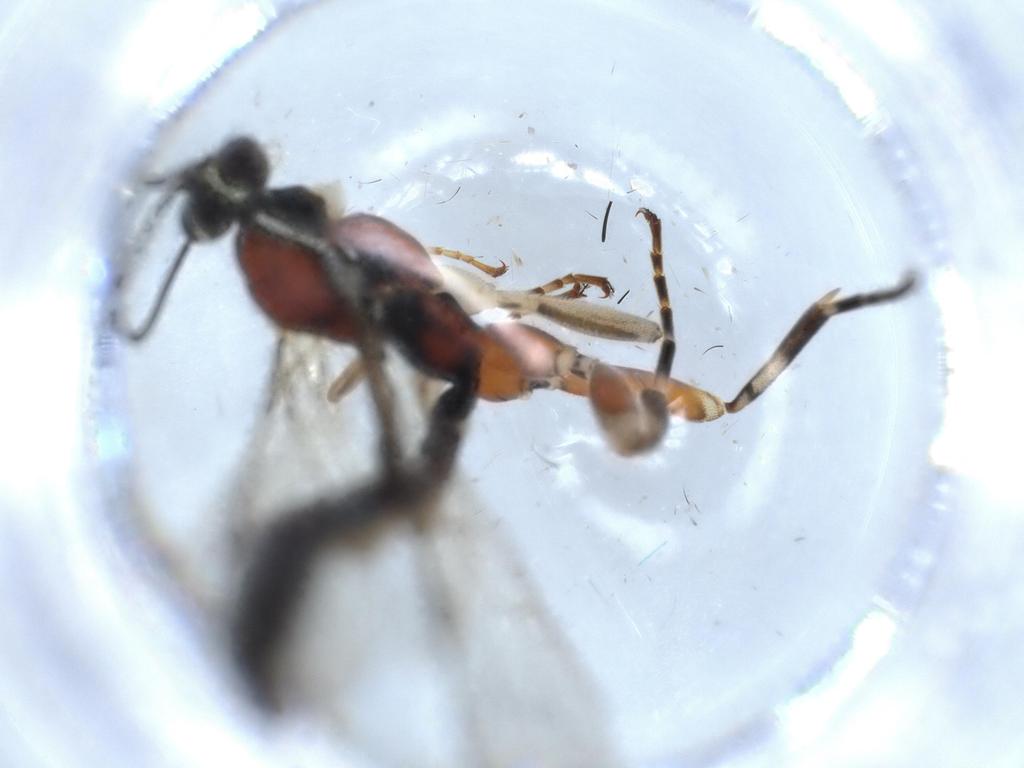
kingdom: Animalia
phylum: Arthropoda
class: Insecta
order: Hymenoptera
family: Ichneumonidae
